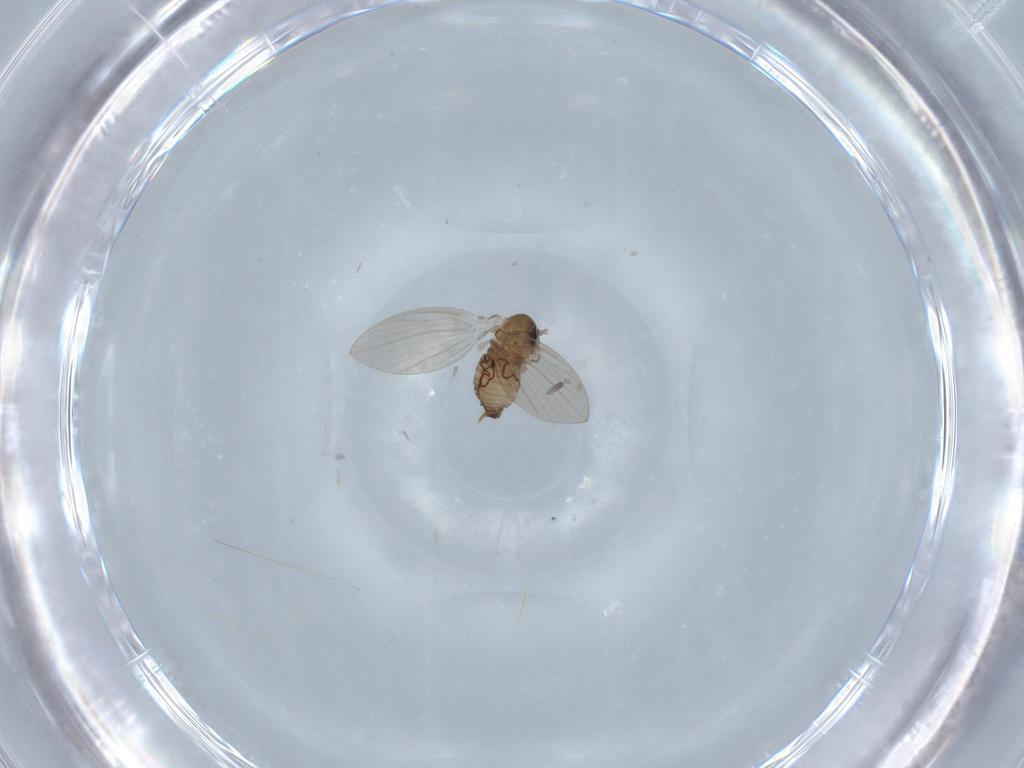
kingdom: Animalia
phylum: Arthropoda
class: Insecta
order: Diptera
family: Psychodidae
